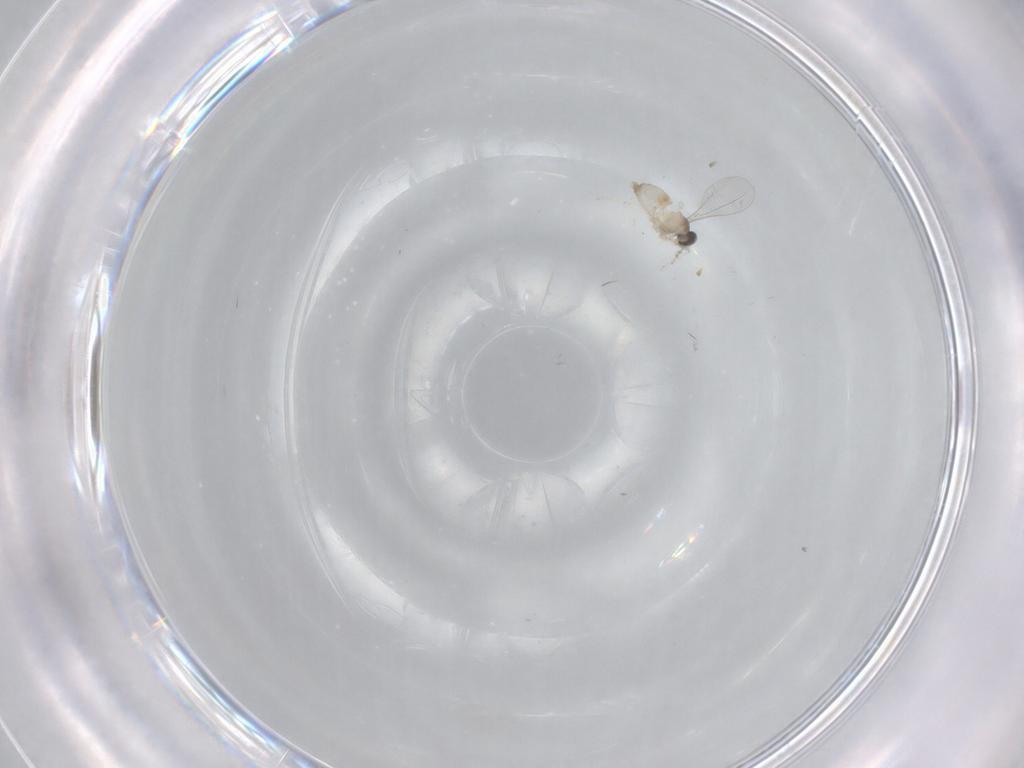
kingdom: Animalia
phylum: Arthropoda
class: Insecta
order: Diptera
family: Cecidomyiidae
